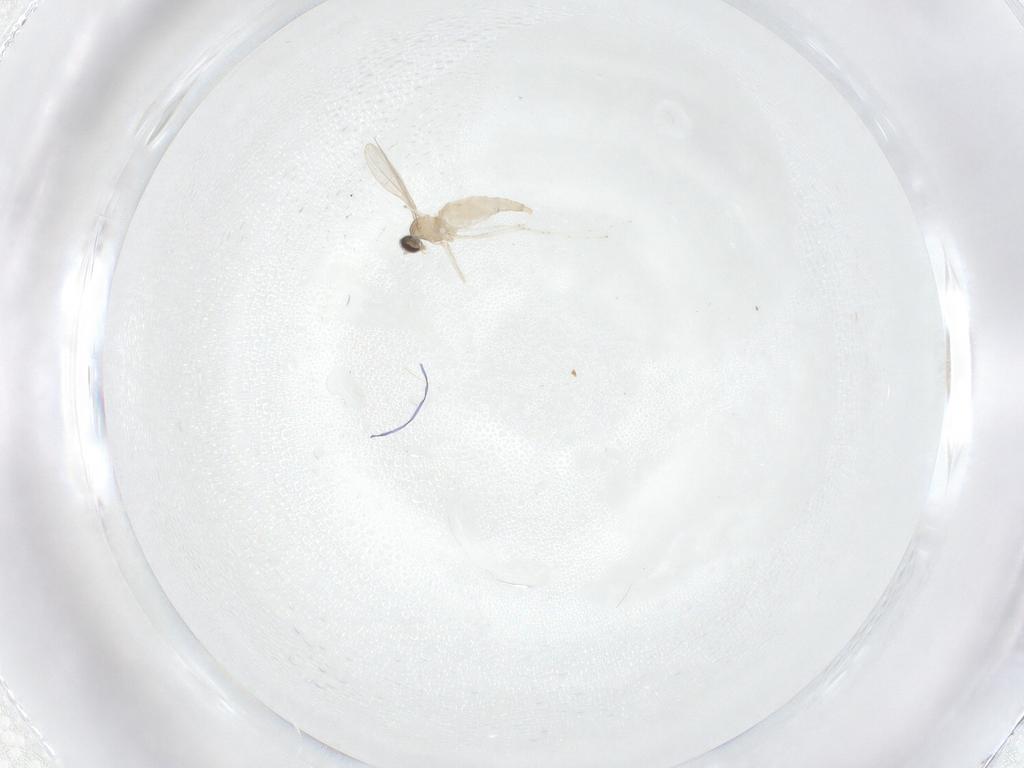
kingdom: Animalia
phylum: Arthropoda
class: Insecta
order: Diptera
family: Cecidomyiidae
